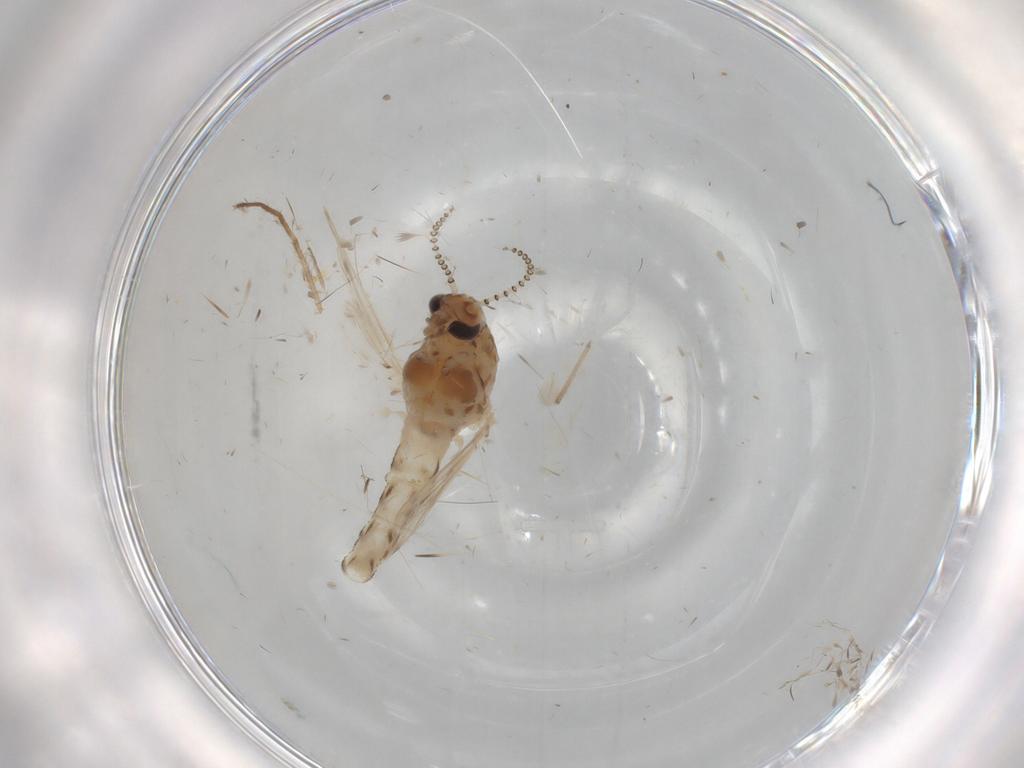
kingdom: Animalia
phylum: Arthropoda
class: Insecta
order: Diptera
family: Chaoboridae
